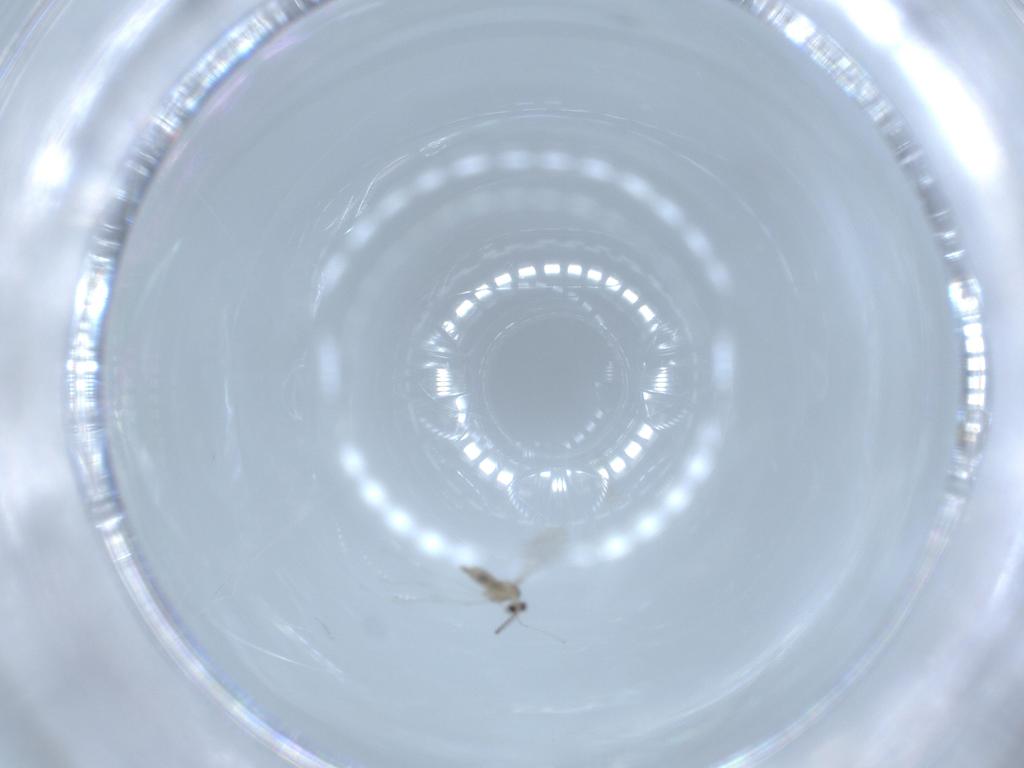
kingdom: Animalia
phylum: Arthropoda
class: Insecta
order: Diptera
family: Cecidomyiidae
